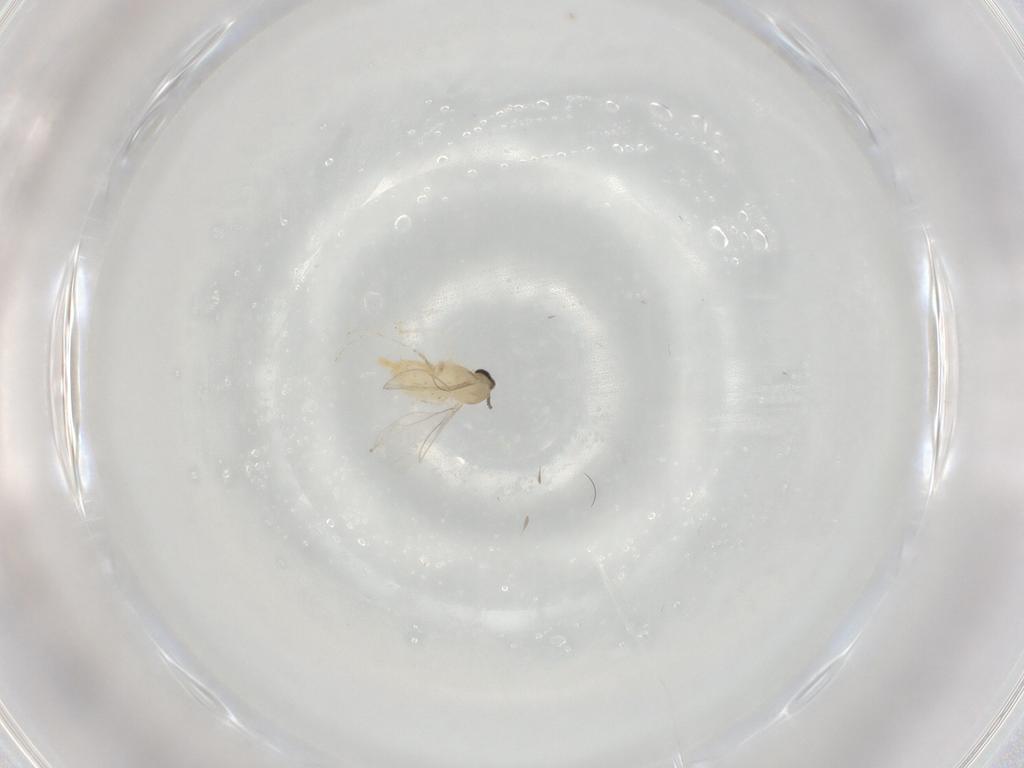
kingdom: Animalia
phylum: Arthropoda
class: Insecta
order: Diptera
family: Cecidomyiidae
